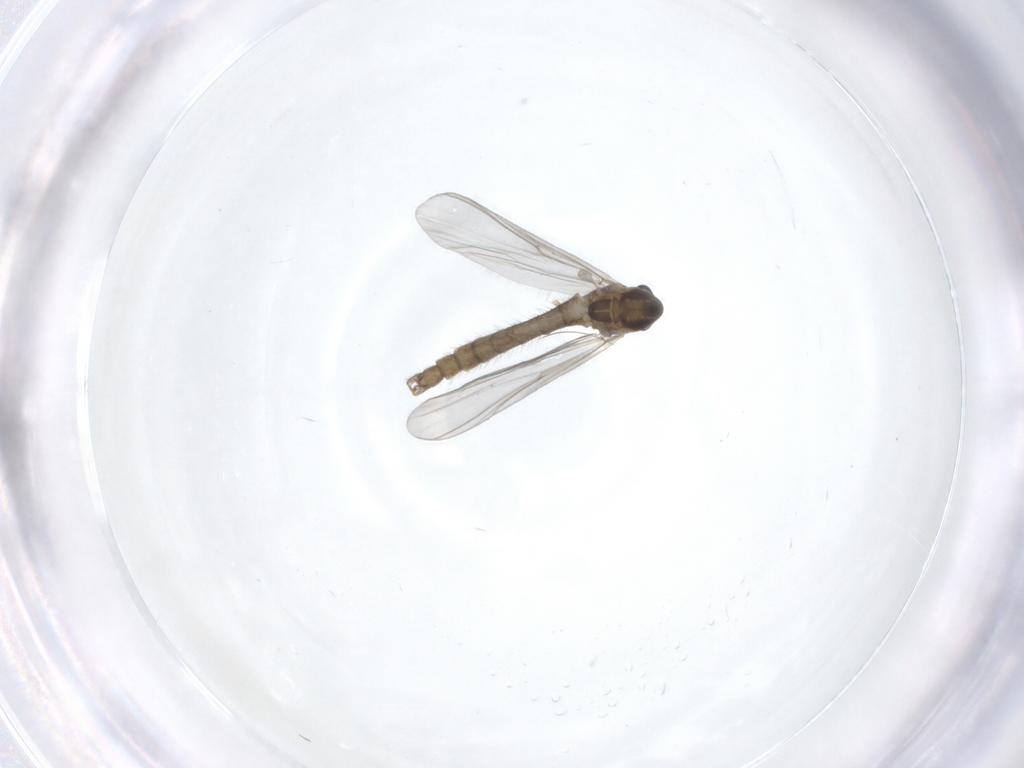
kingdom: Animalia
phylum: Arthropoda
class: Insecta
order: Diptera
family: Chironomidae
